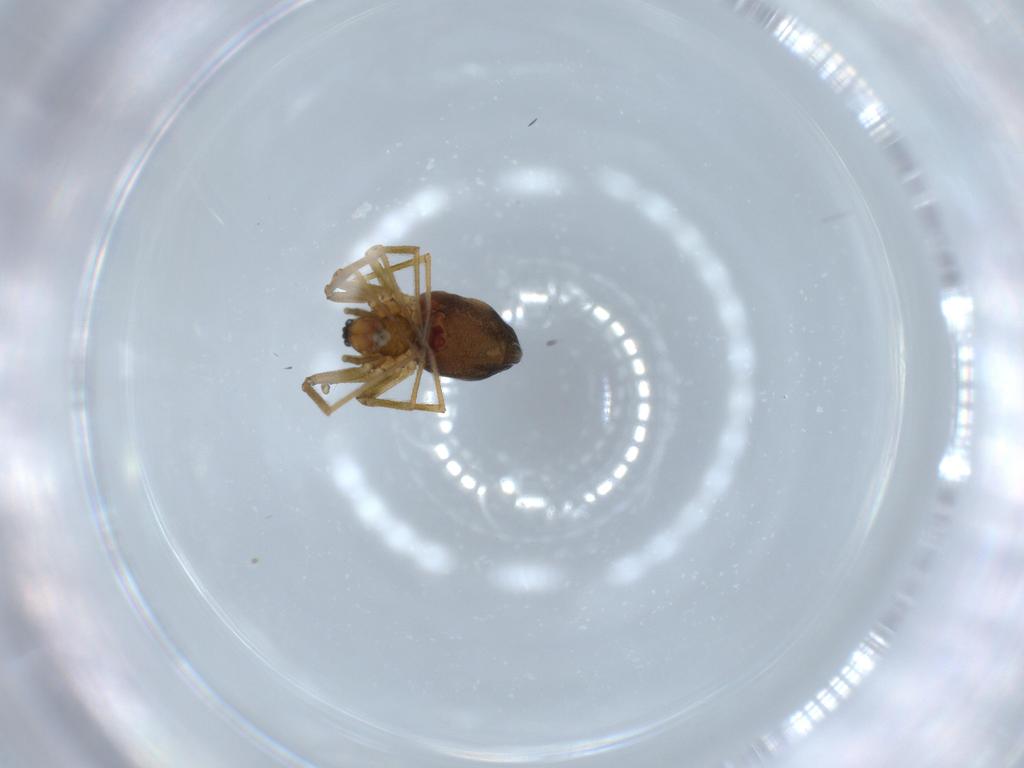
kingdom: Animalia
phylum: Arthropoda
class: Arachnida
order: Araneae
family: Linyphiidae
